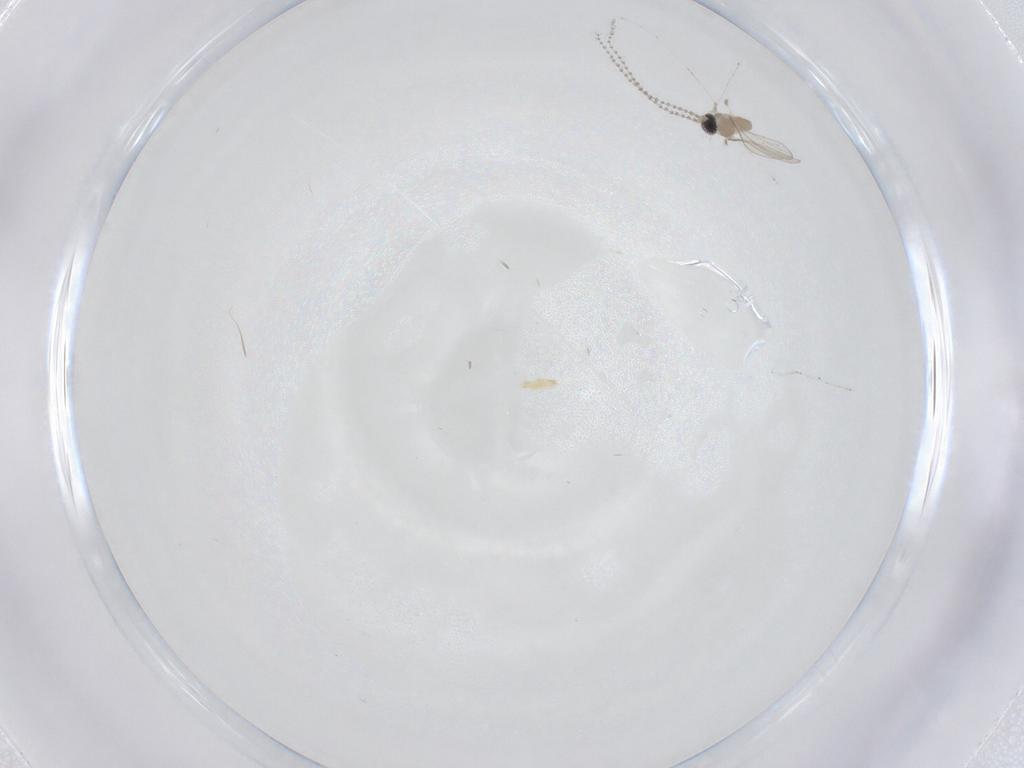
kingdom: Animalia
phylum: Arthropoda
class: Insecta
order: Diptera
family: Cecidomyiidae
